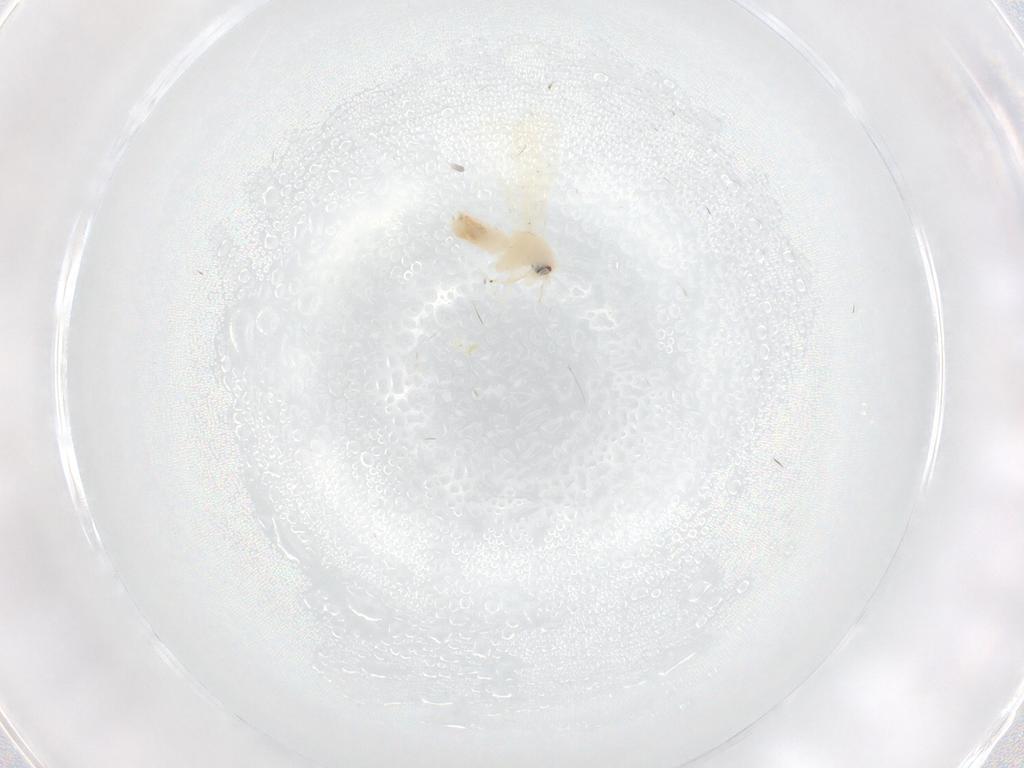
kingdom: Animalia
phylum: Arthropoda
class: Insecta
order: Hemiptera
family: Aleyrodidae
